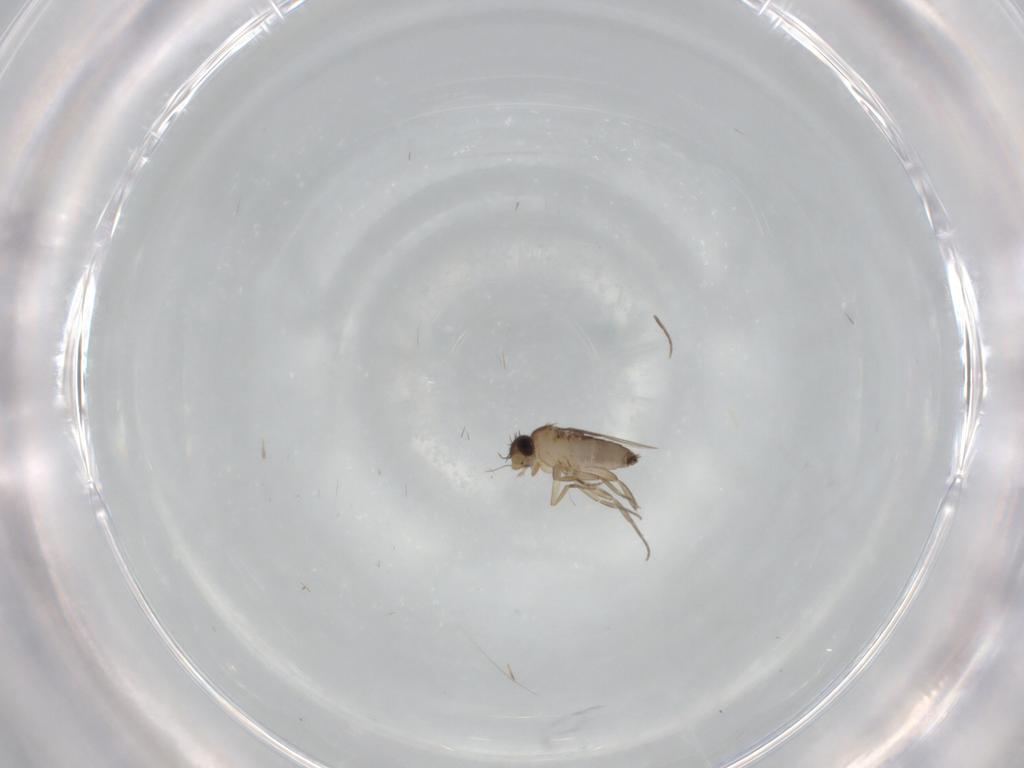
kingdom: Animalia
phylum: Arthropoda
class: Insecta
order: Diptera
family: Phoridae
